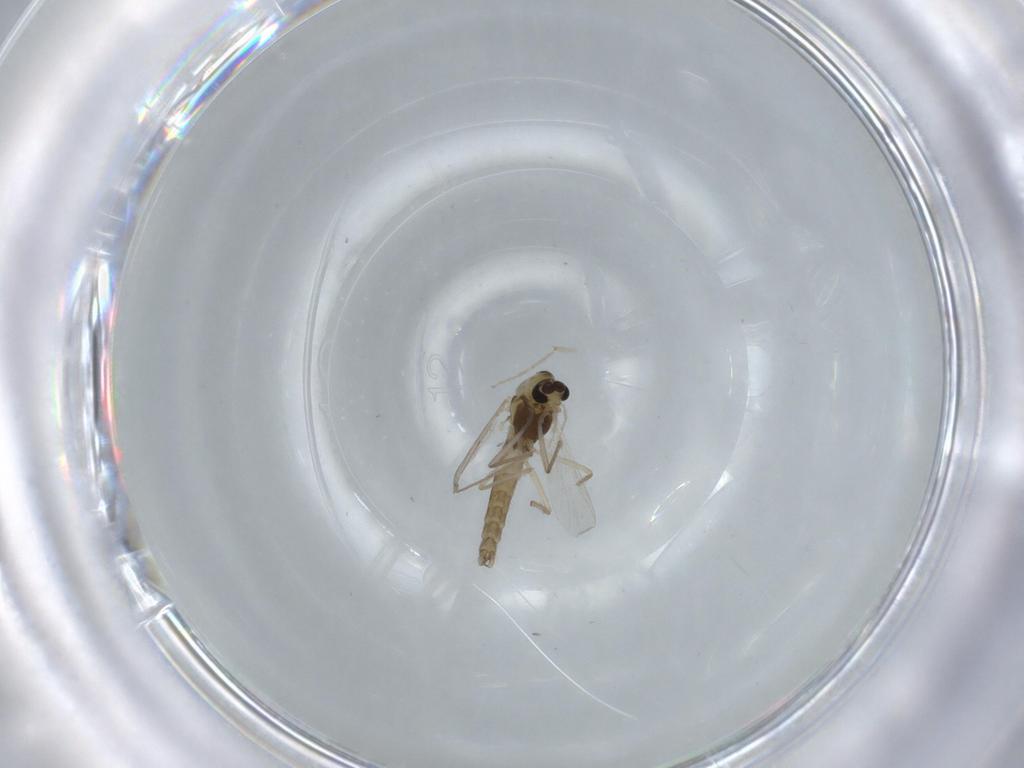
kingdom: Animalia
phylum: Arthropoda
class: Insecta
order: Diptera
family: Chironomidae
